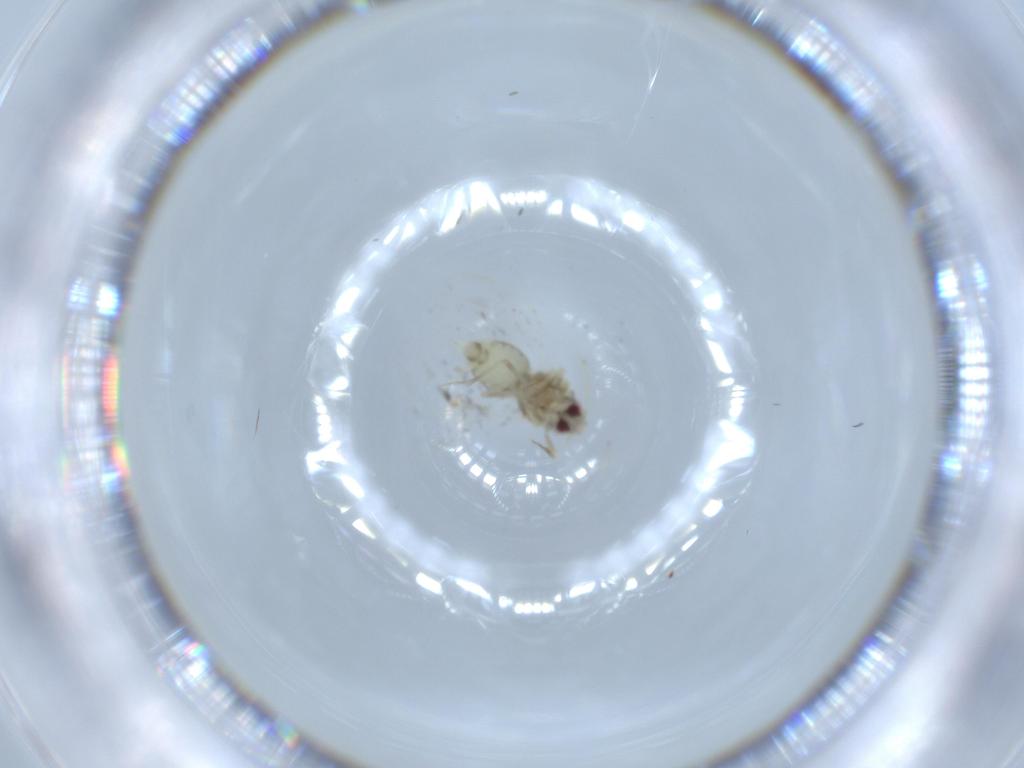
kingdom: Animalia
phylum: Arthropoda
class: Insecta
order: Hemiptera
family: Aleyrodidae
